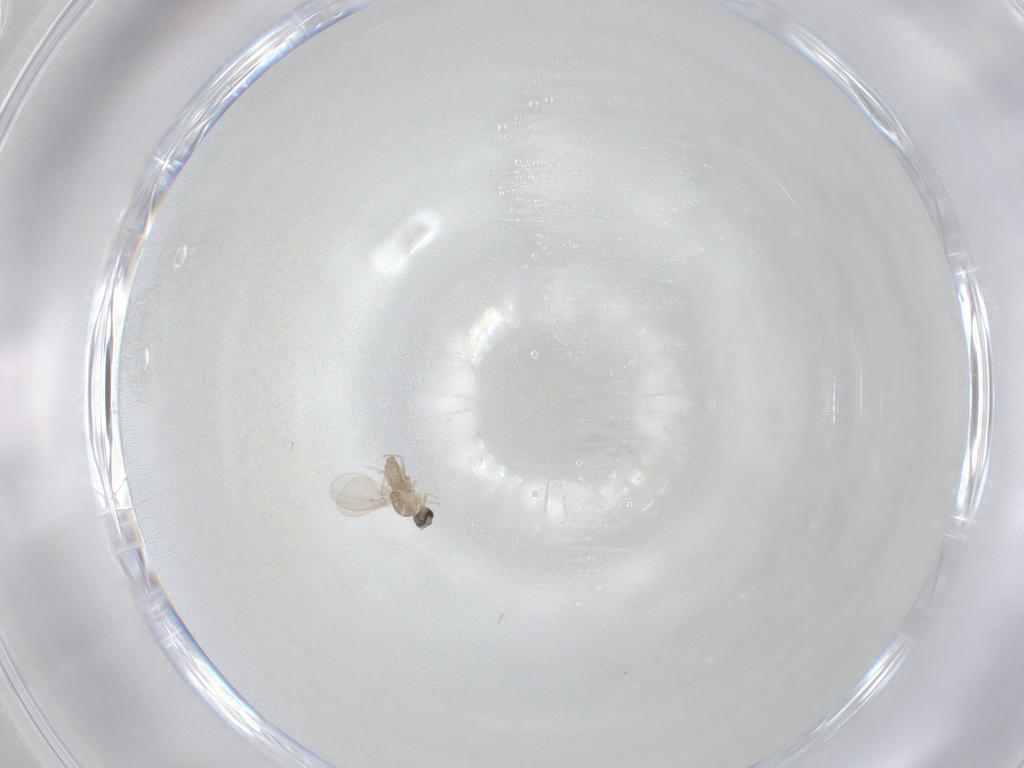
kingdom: Animalia
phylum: Arthropoda
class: Insecta
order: Diptera
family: Cecidomyiidae
